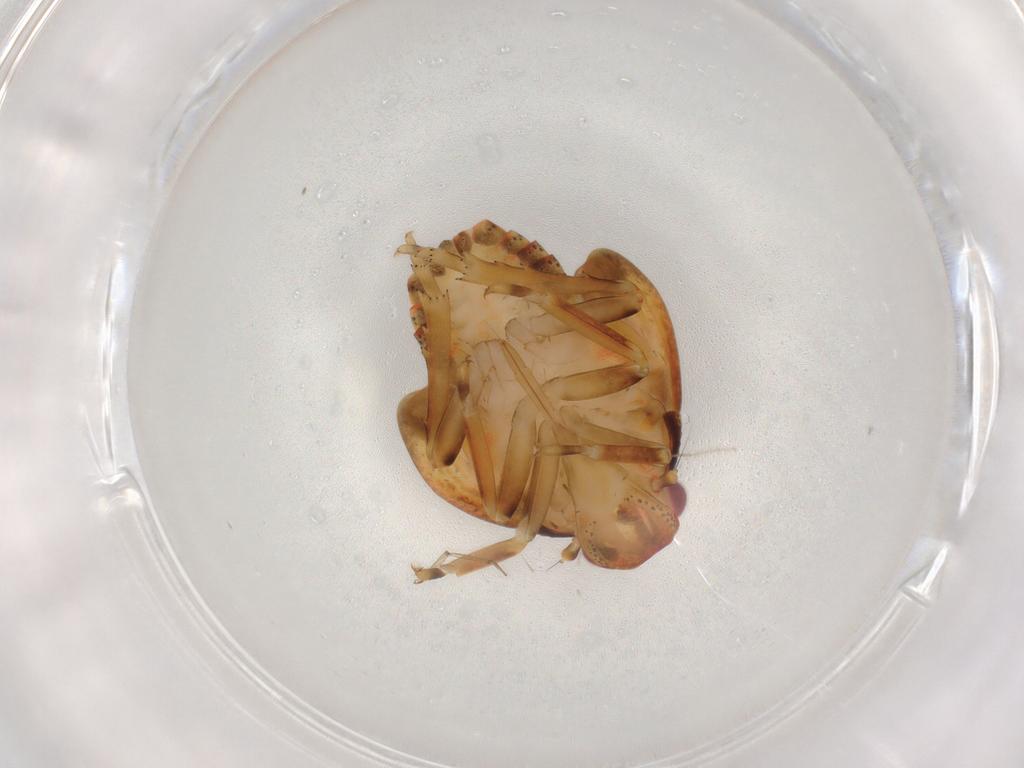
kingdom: Animalia
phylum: Arthropoda
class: Insecta
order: Hemiptera
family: Flatidae
